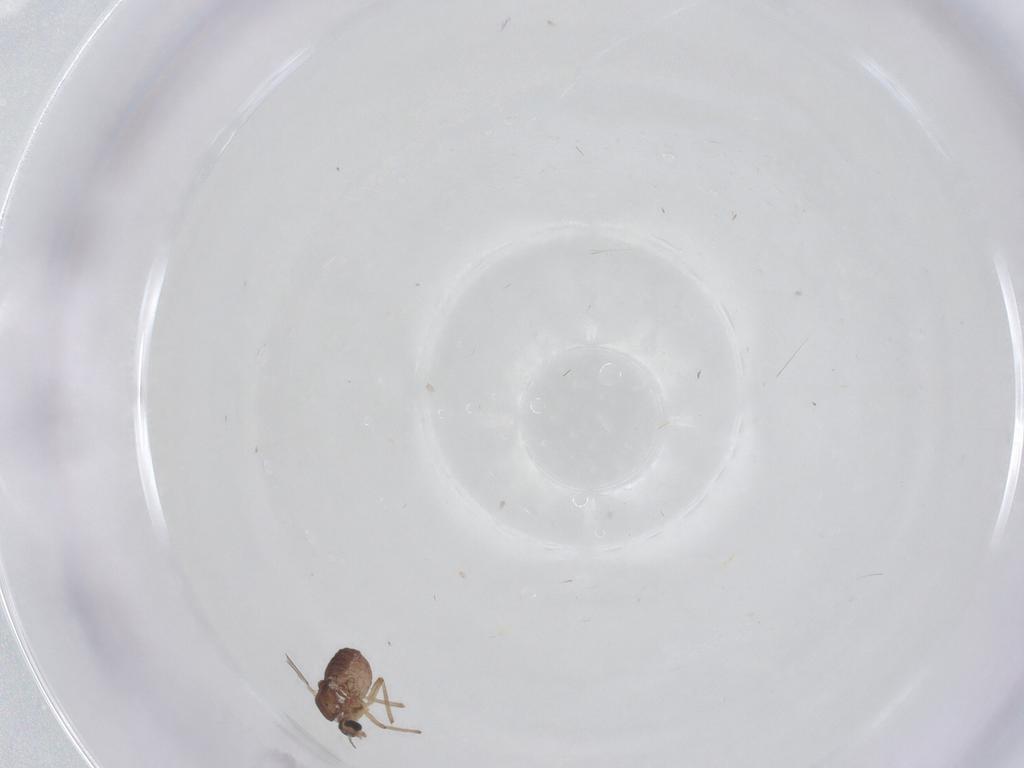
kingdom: Animalia
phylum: Arthropoda
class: Insecta
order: Diptera
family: Chironomidae
